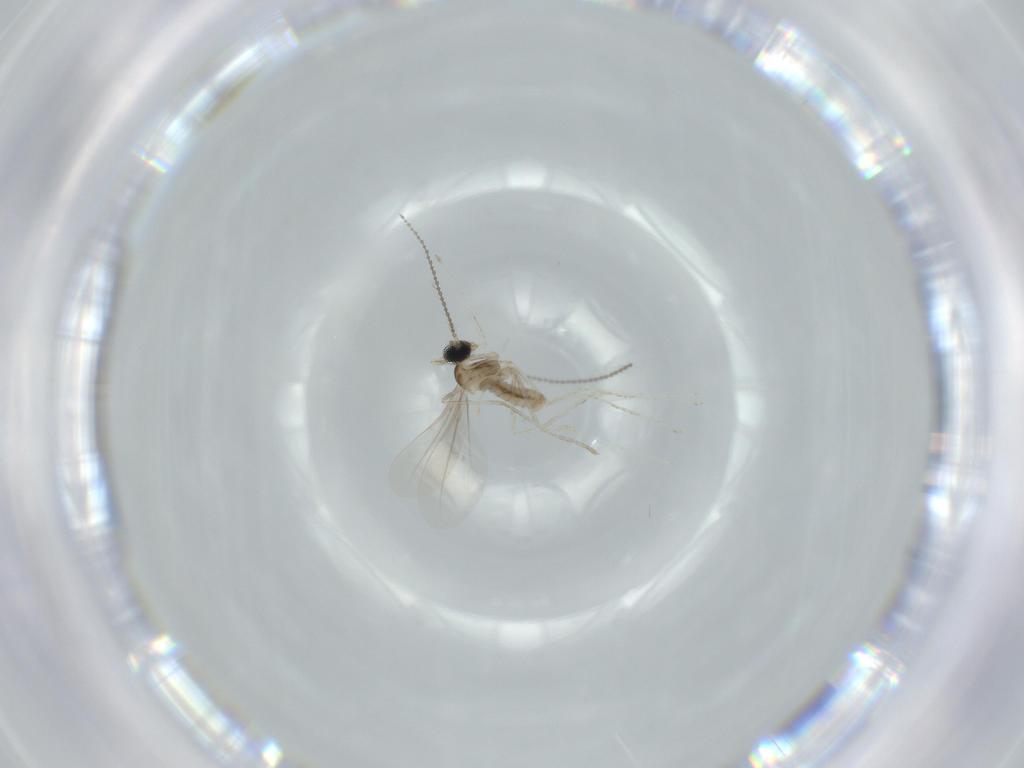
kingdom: Animalia
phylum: Arthropoda
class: Insecta
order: Diptera
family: Cecidomyiidae
